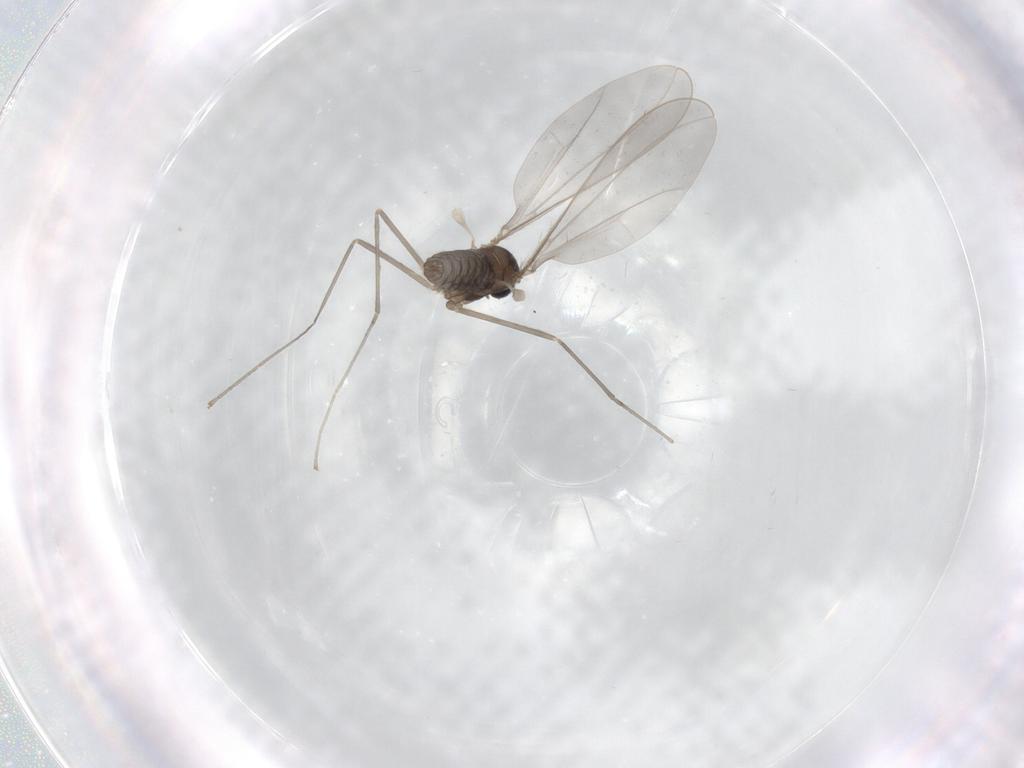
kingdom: Animalia
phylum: Arthropoda
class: Insecta
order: Diptera
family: Cecidomyiidae
